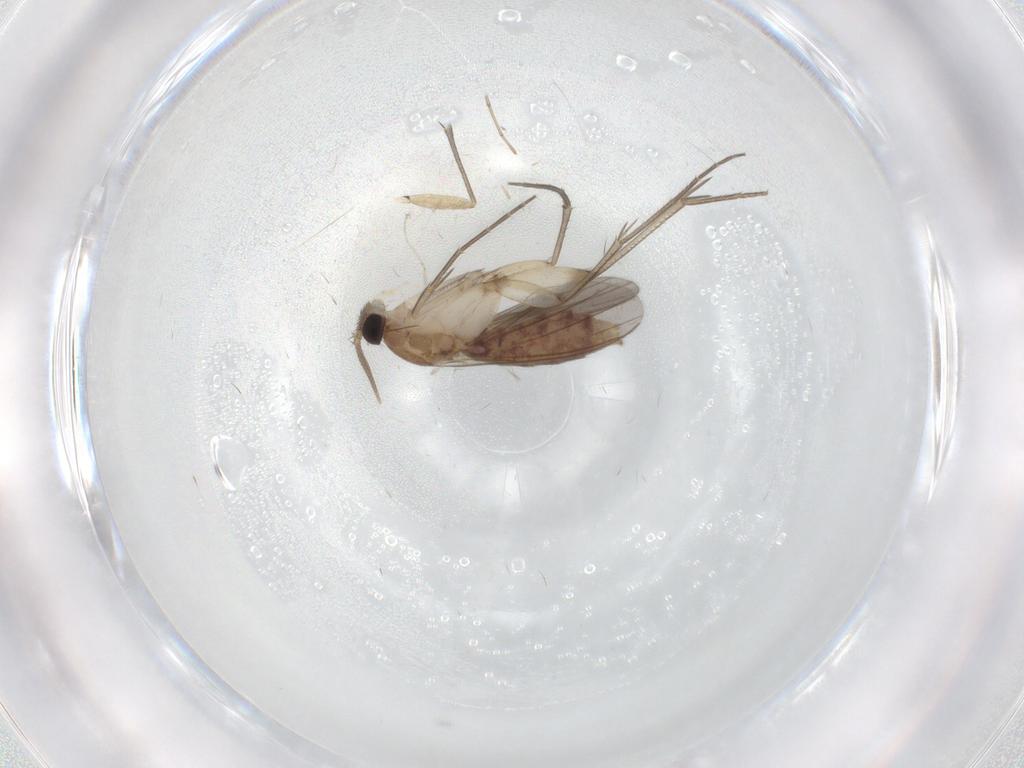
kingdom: Animalia
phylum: Arthropoda
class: Insecta
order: Diptera
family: Mycetophilidae
